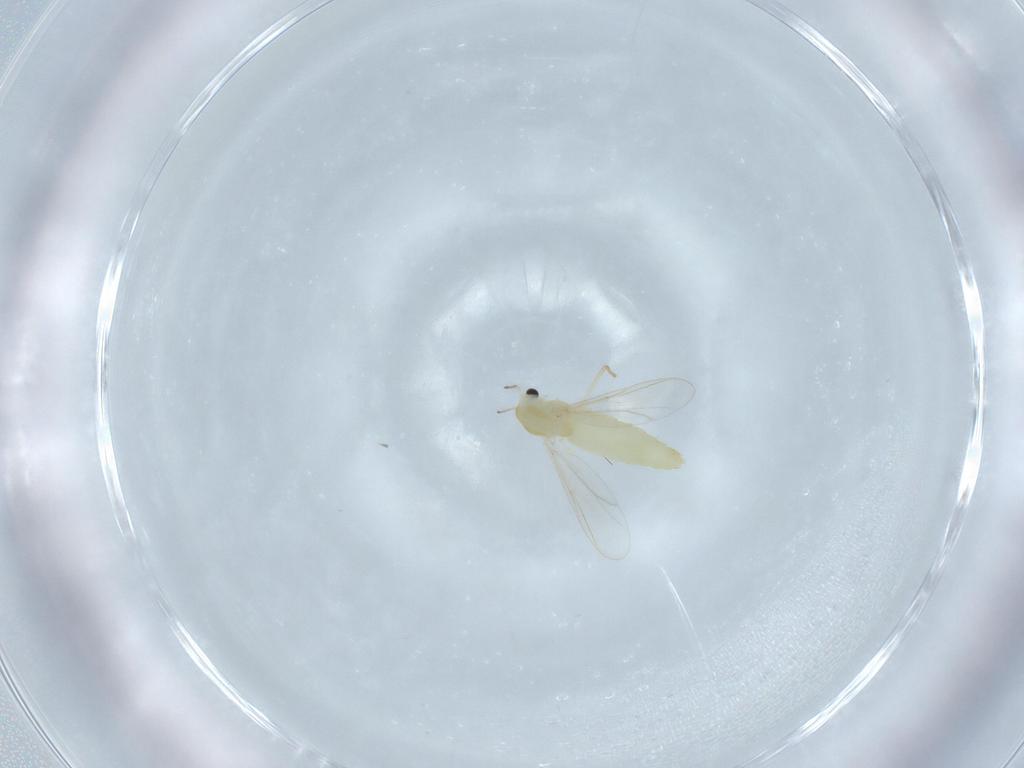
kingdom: Animalia
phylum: Arthropoda
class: Insecta
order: Diptera
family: Chironomidae
